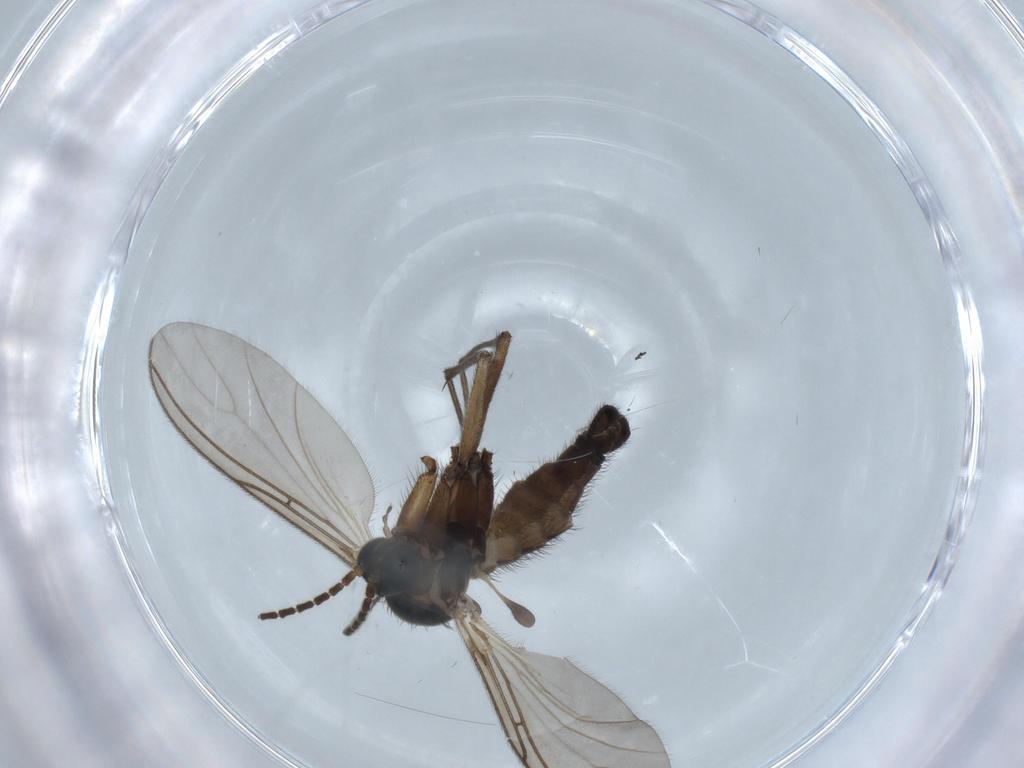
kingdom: Animalia
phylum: Arthropoda
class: Insecta
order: Diptera
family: Sciaridae
